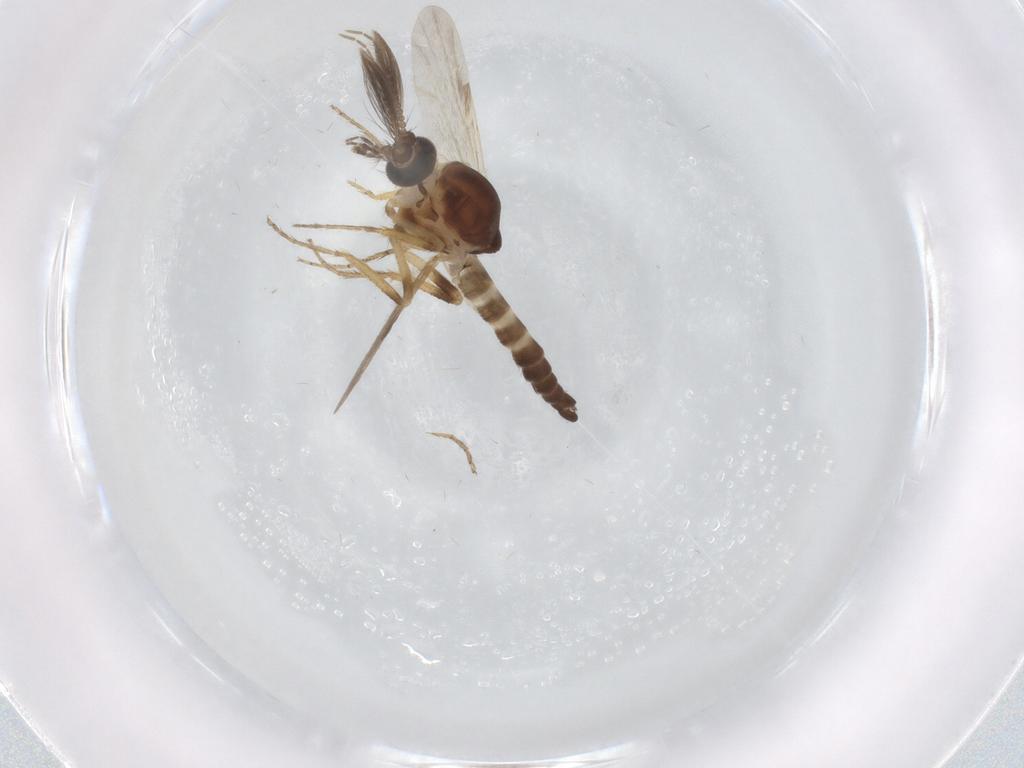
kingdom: Animalia
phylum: Arthropoda
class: Insecta
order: Diptera
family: Ceratopogonidae
